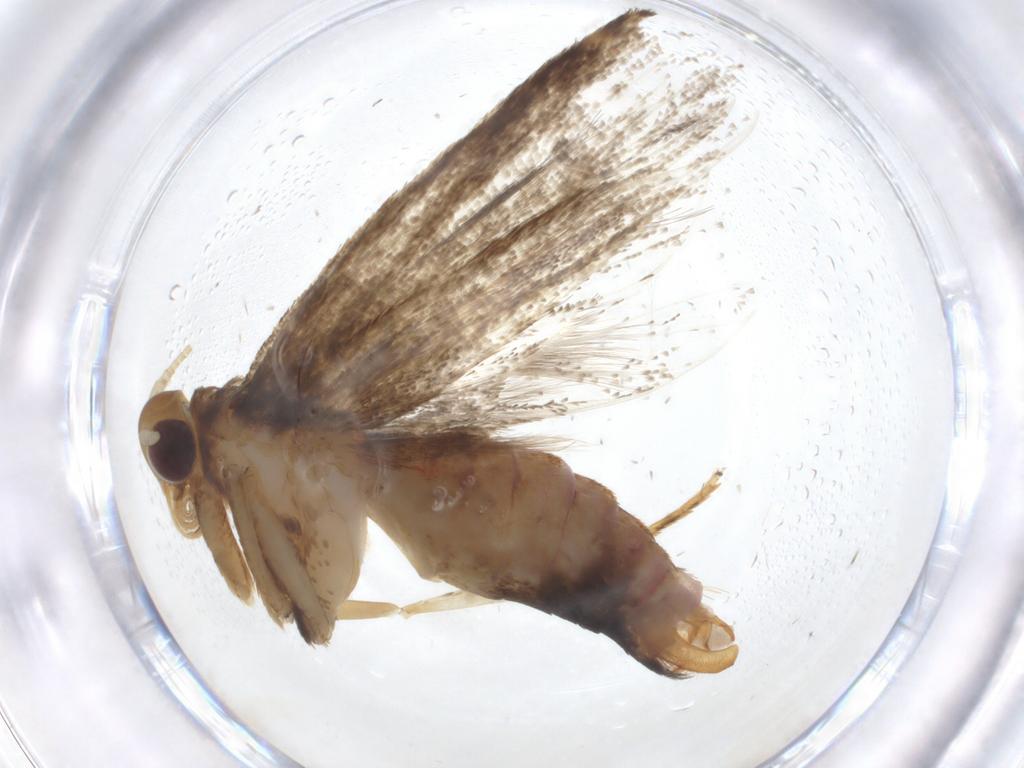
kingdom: Animalia
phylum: Arthropoda
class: Insecta
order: Lepidoptera
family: Lecithoceridae
